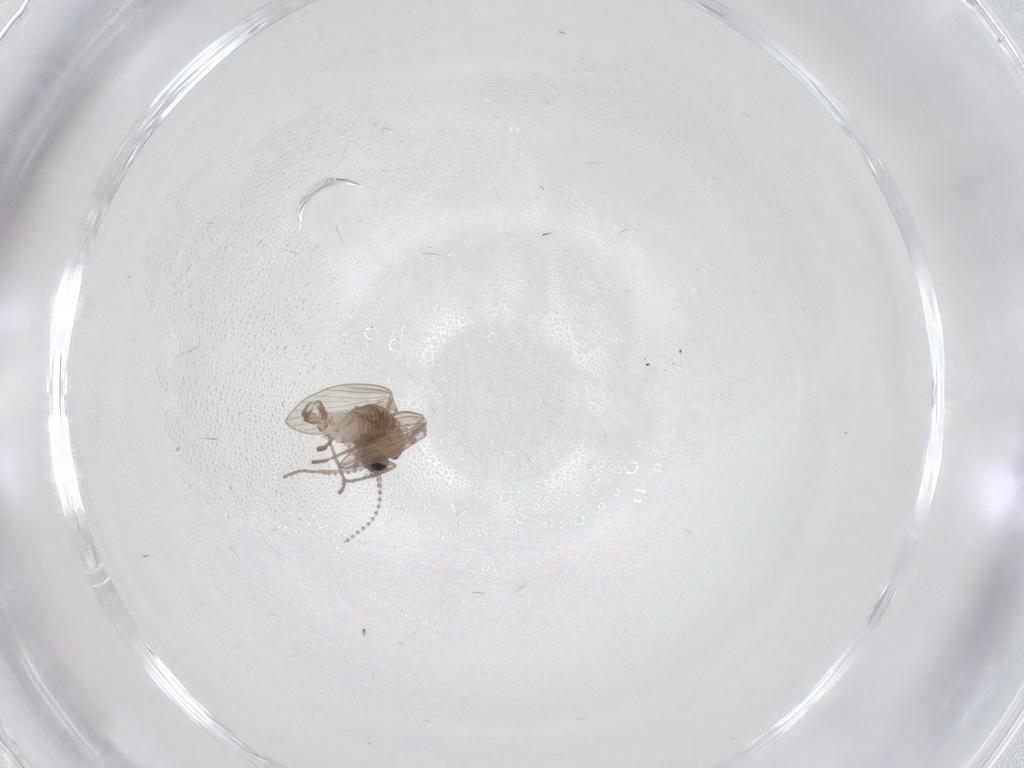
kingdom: Animalia
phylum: Arthropoda
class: Insecta
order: Diptera
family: Psychodidae
